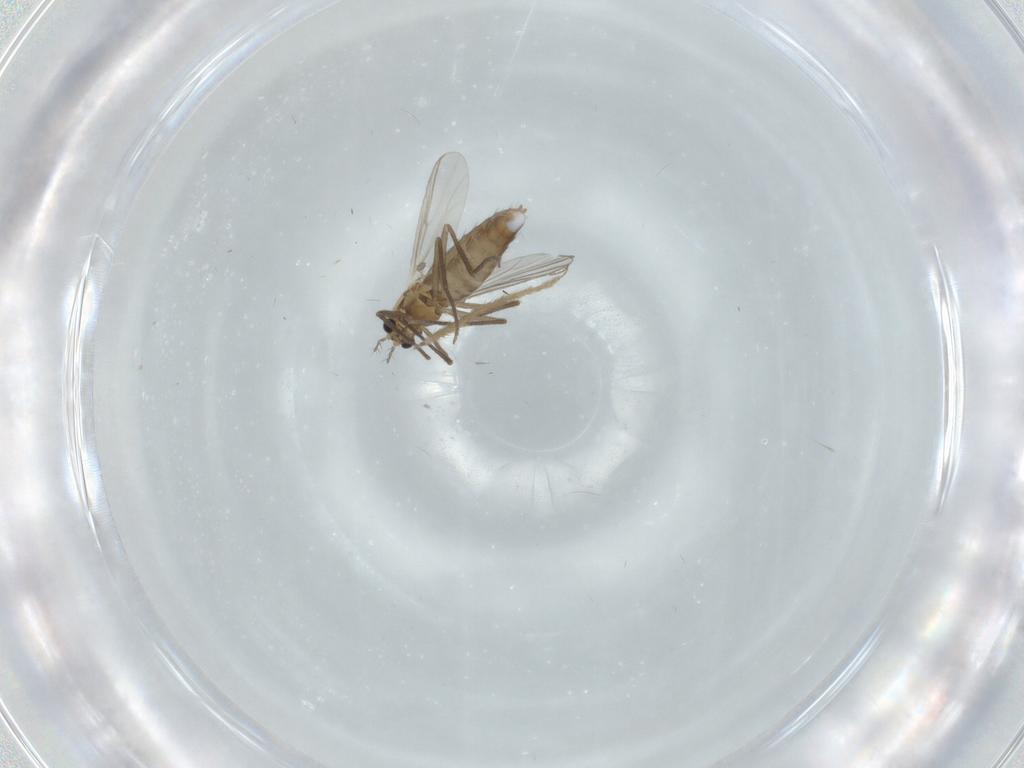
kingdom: Animalia
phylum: Arthropoda
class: Insecta
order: Diptera
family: Chironomidae
